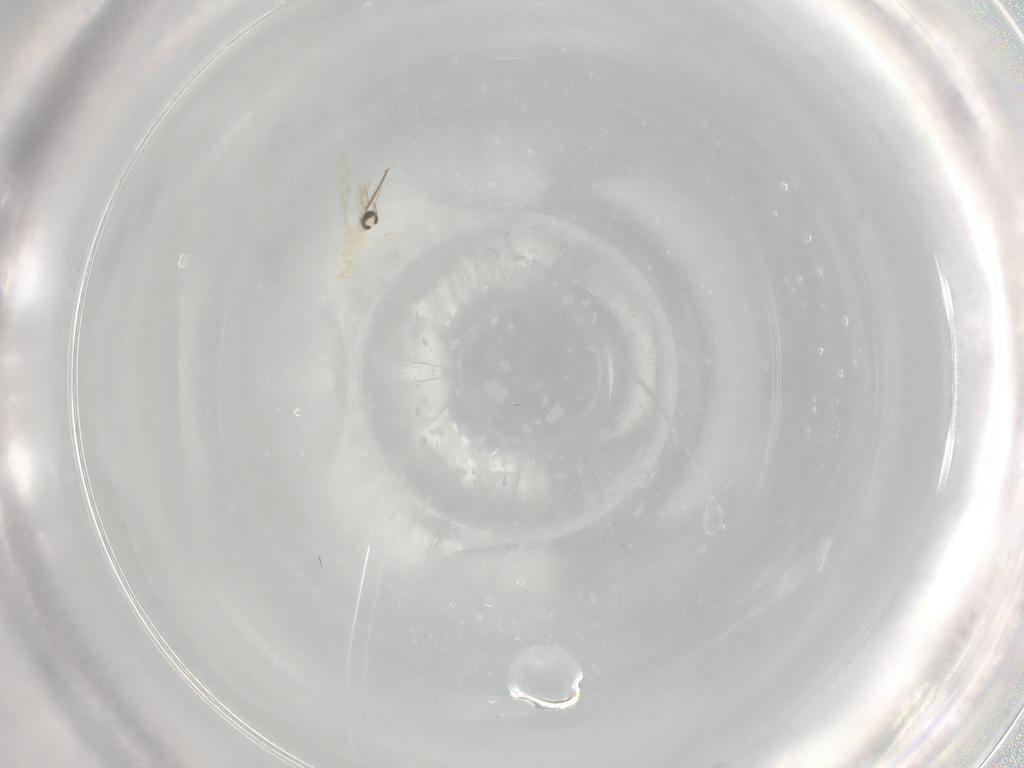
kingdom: Animalia
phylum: Arthropoda
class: Insecta
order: Diptera
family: Cecidomyiidae
